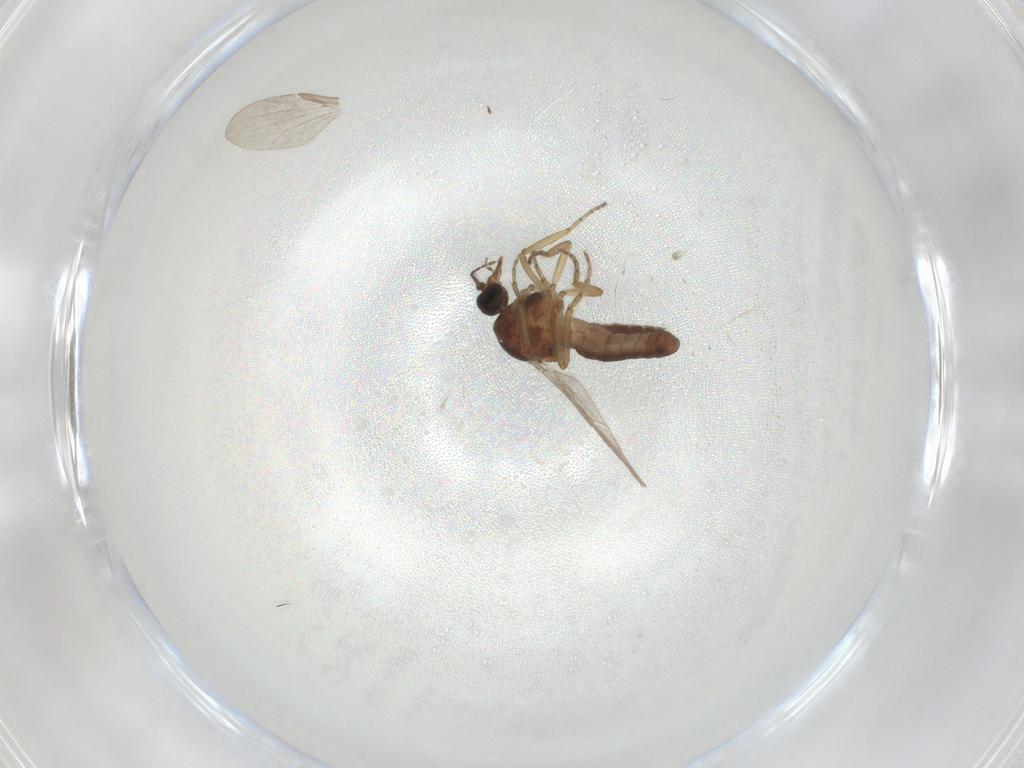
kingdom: Animalia
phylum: Arthropoda
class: Insecta
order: Diptera
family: Ceratopogonidae
